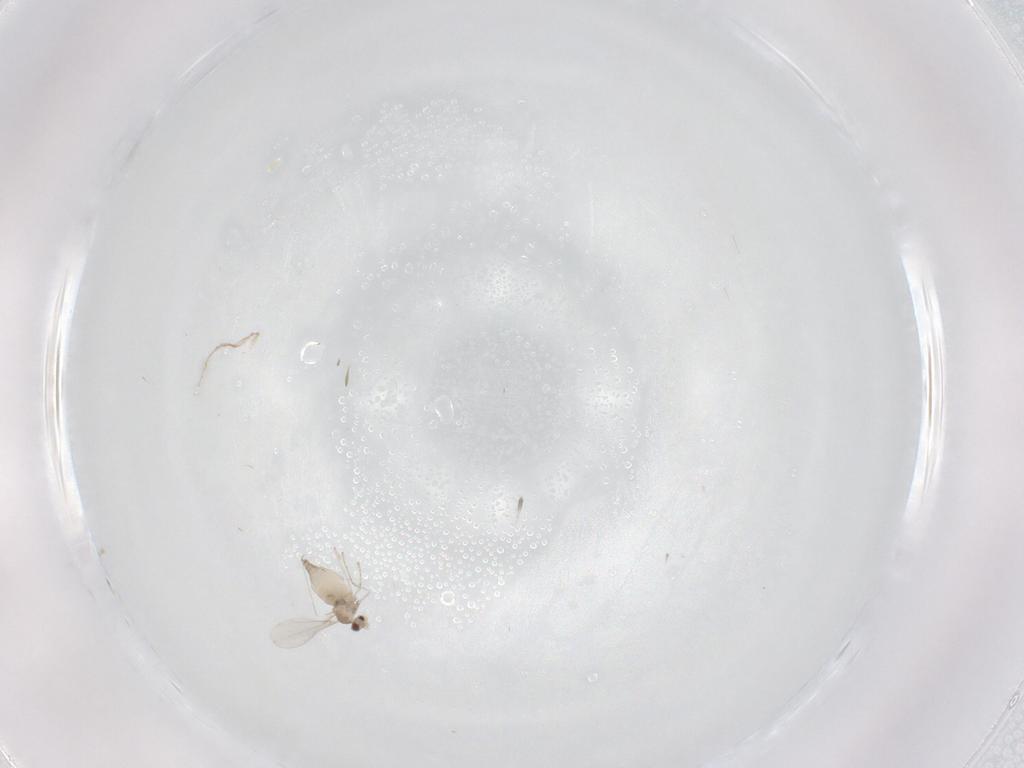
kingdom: Animalia
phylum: Arthropoda
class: Insecta
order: Diptera
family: Cecidomyiidae
